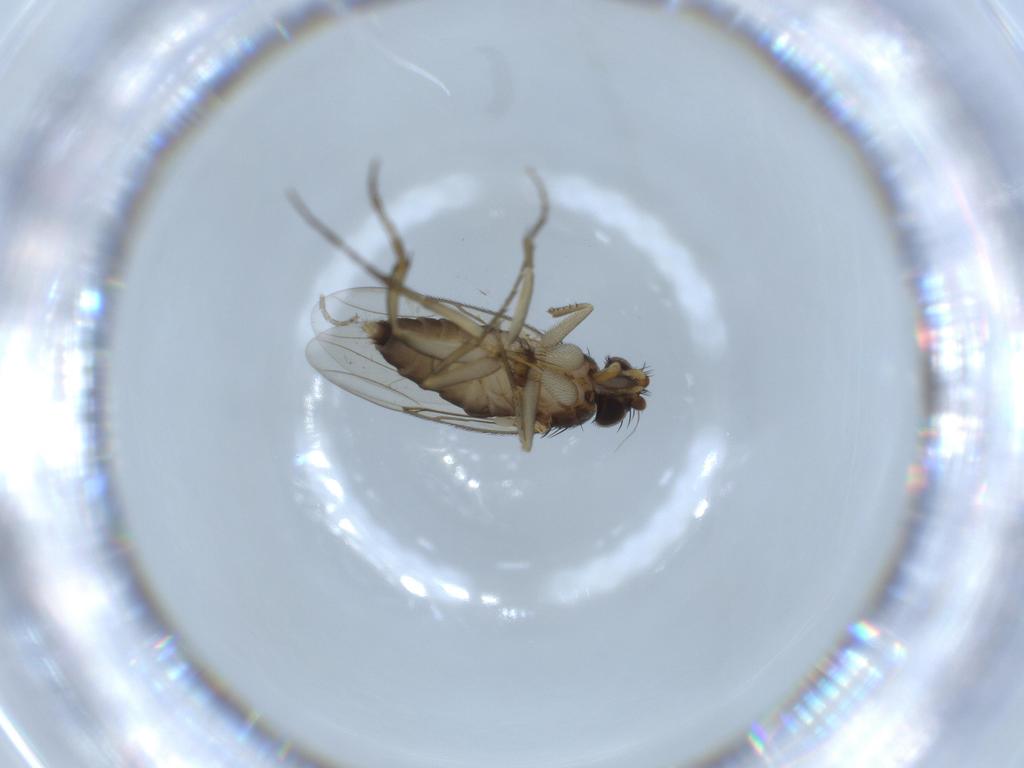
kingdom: Animalia
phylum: Arthropoda
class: Insecta
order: Diptera
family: Phoridae
